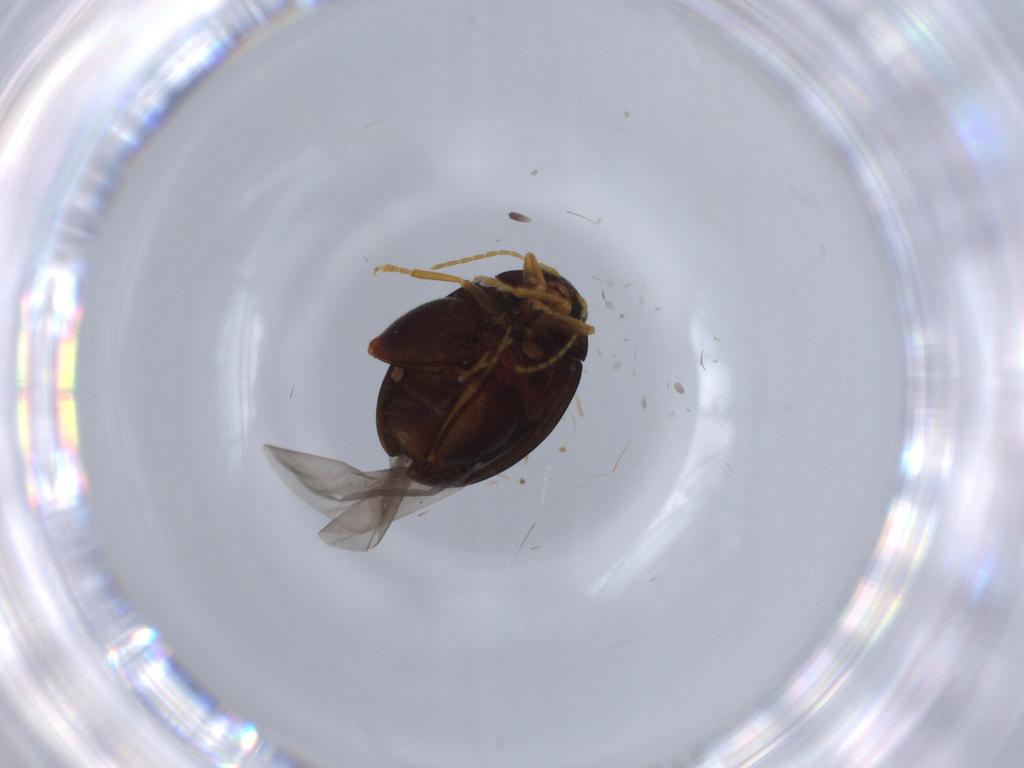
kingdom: Animalia
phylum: Arthropoda
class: Insecta
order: Coleoptera
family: Chrysomelidae
